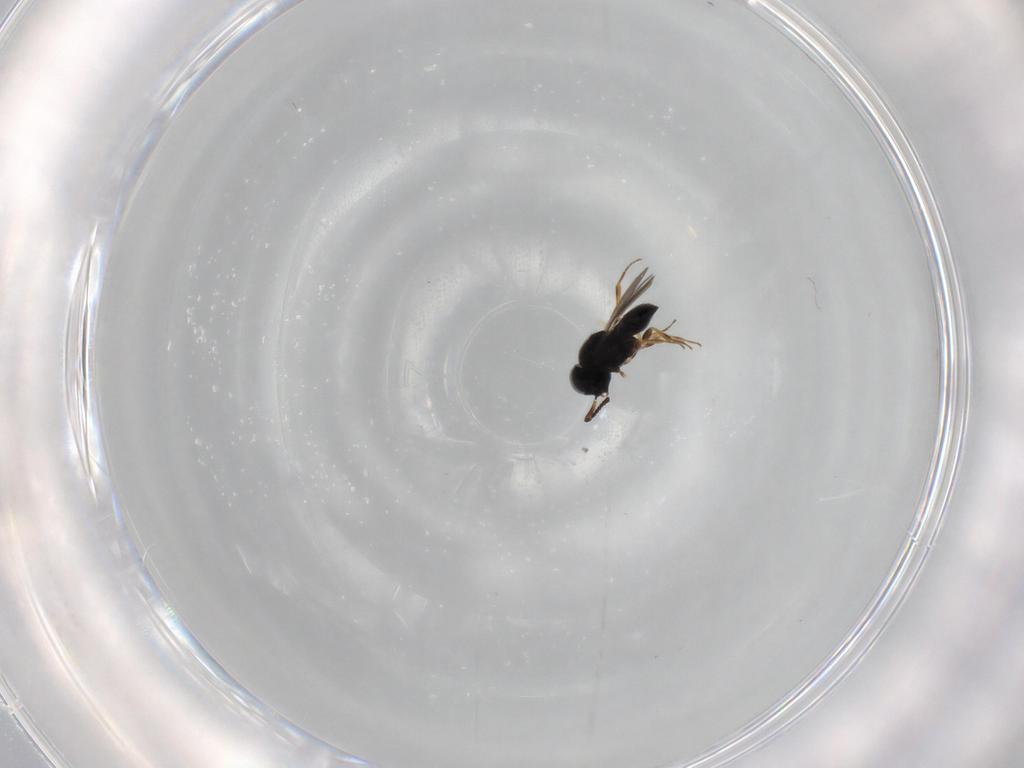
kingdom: Animalia
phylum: Arthropoda
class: Insecta
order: Hymenoptera
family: Scelionidae
